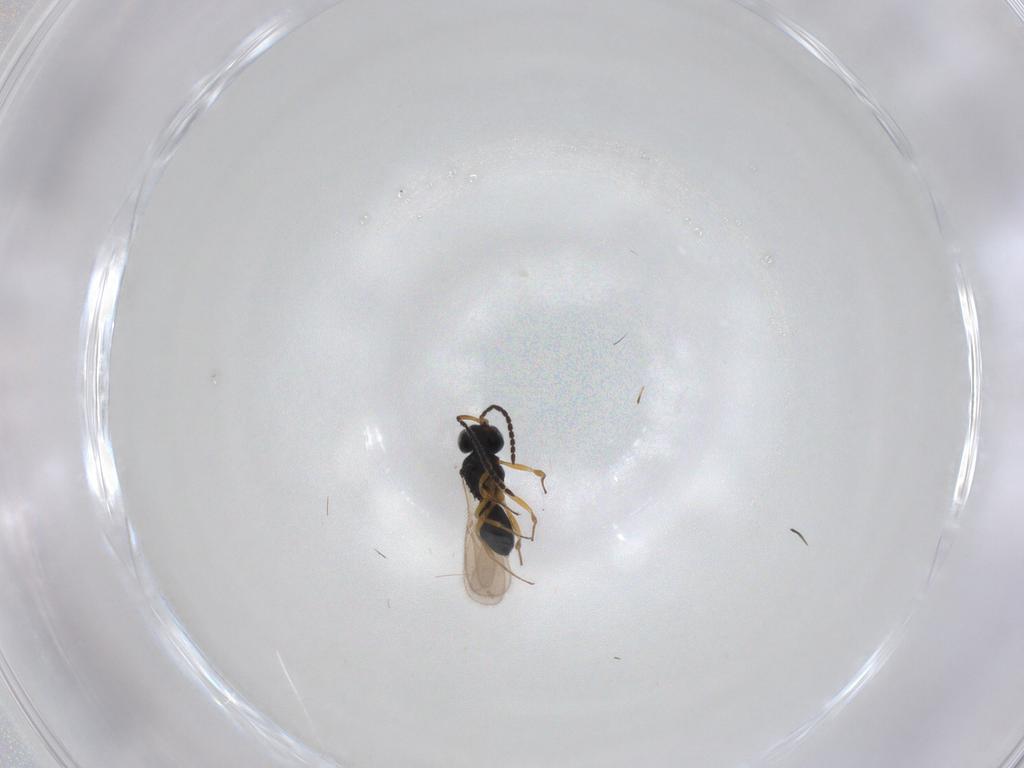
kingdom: Animalia
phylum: Arthropoda
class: Insecta
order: Hymenoptera
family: Scelionidae
